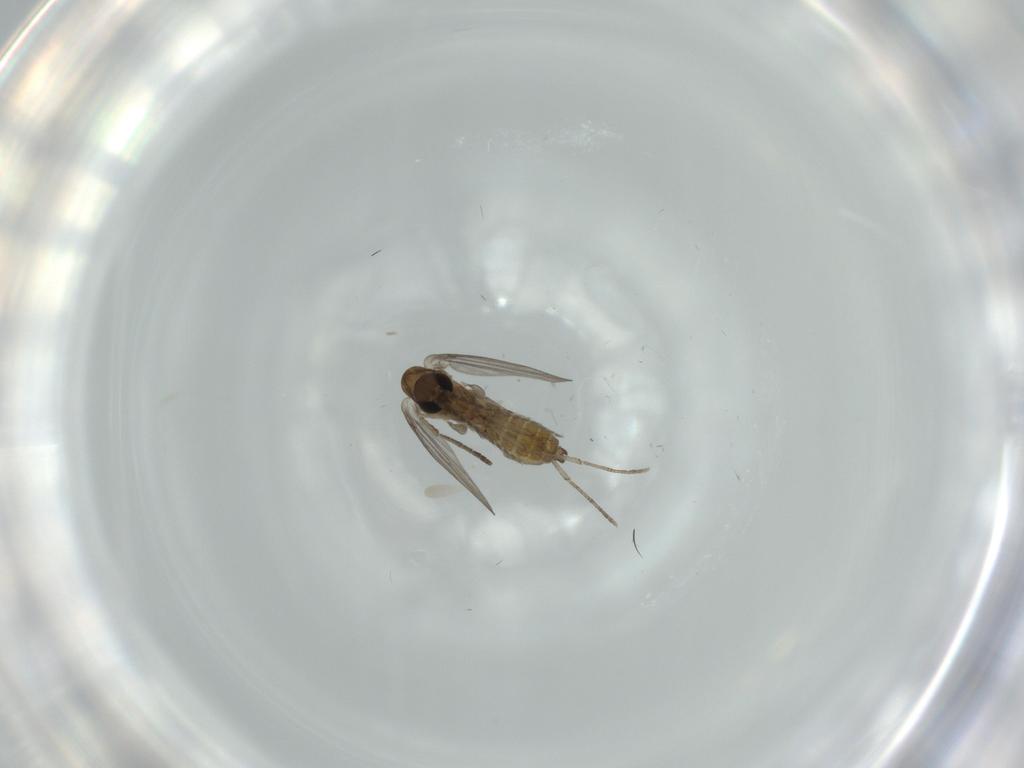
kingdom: Animalia
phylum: Arthropoda
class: Insecta
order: Diptera
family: Psychodidae
